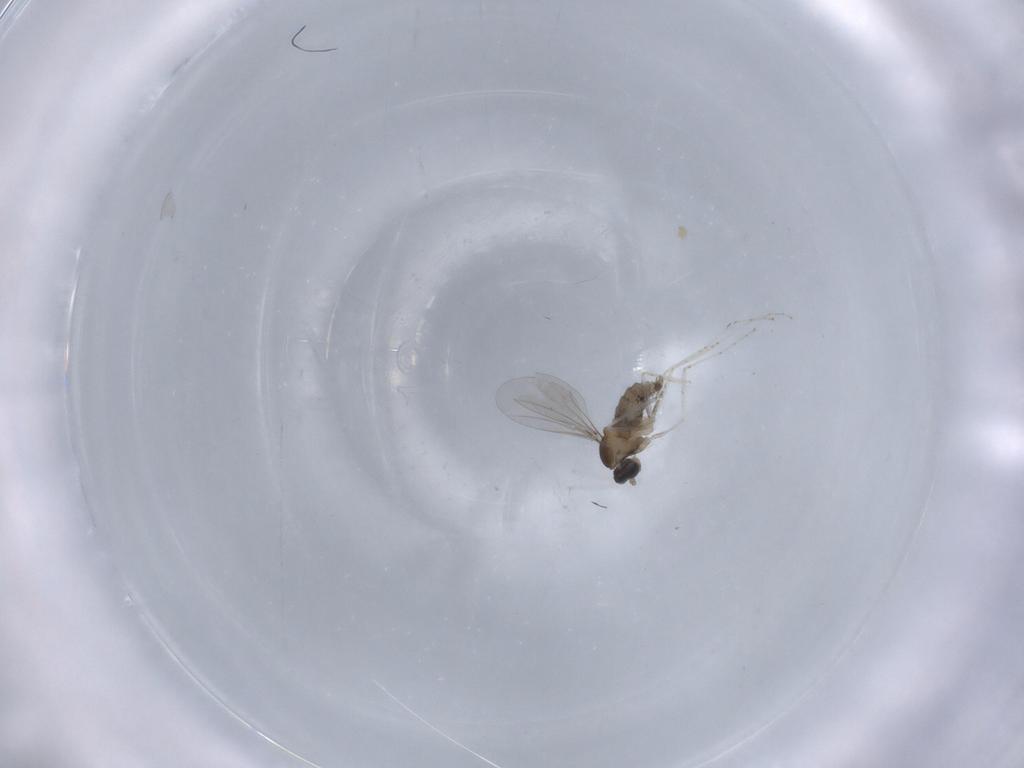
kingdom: Animalia
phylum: Arthropoda
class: Insecta
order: Diptera
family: Cecidomyiidae
